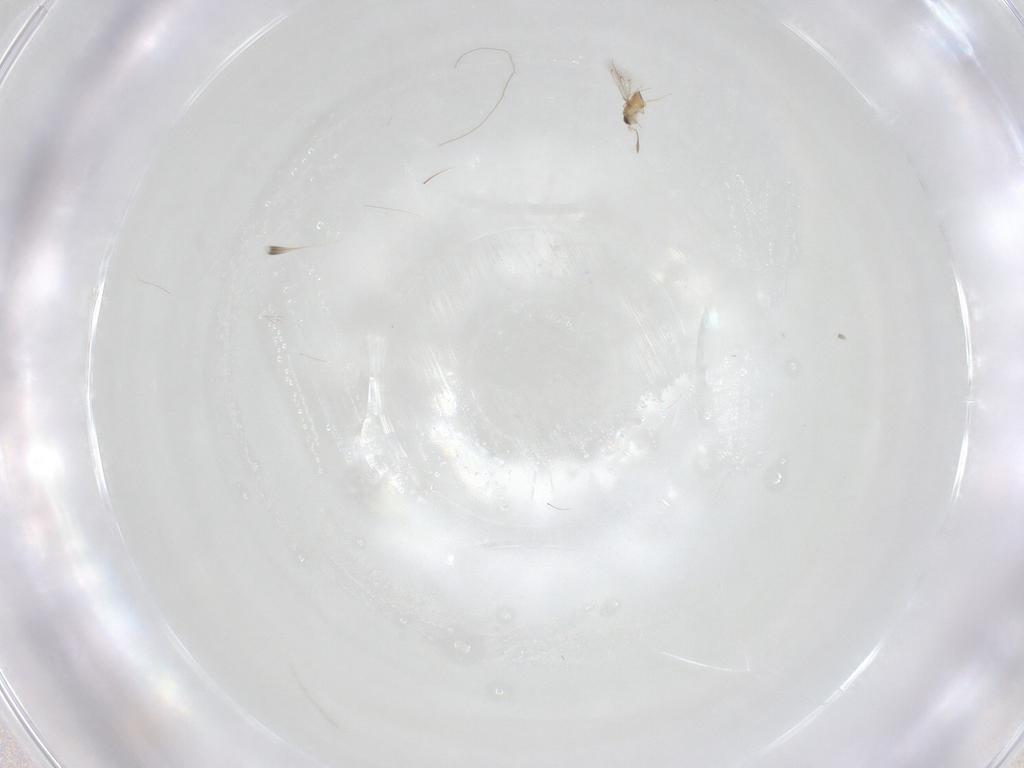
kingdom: Animalia
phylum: Arthropoda
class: Insecta
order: Diptera
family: Cecidomyiidae
